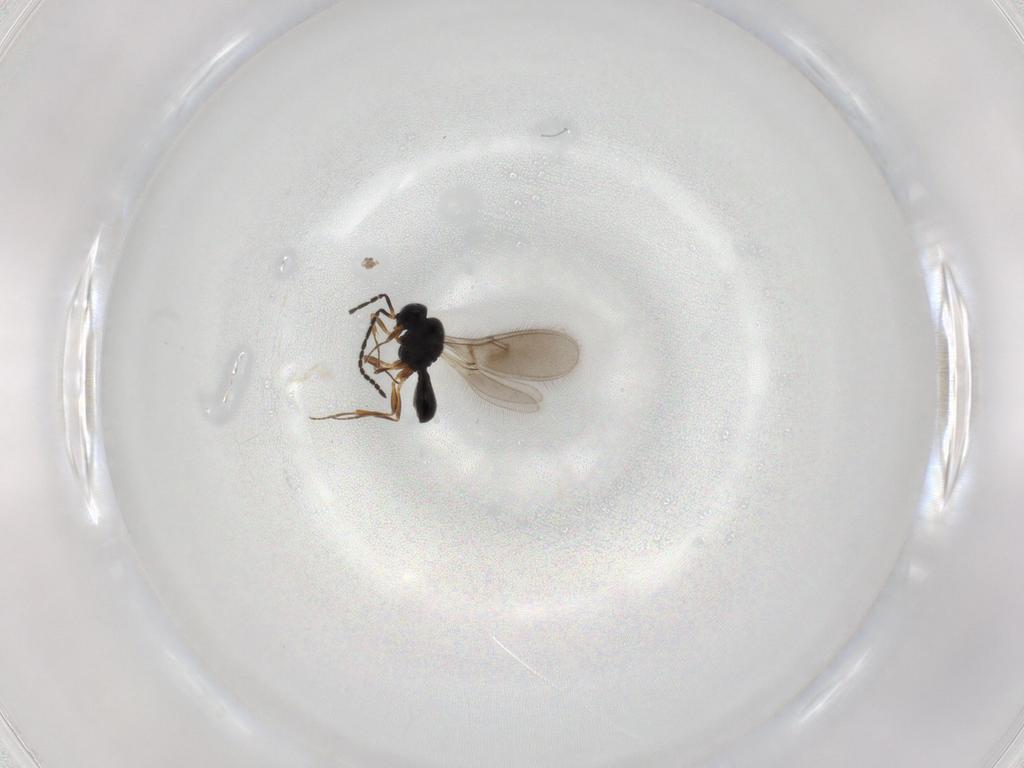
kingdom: Animalia
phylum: Arthropoda
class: Insecta
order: Hymenoptera
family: Scelionidae
